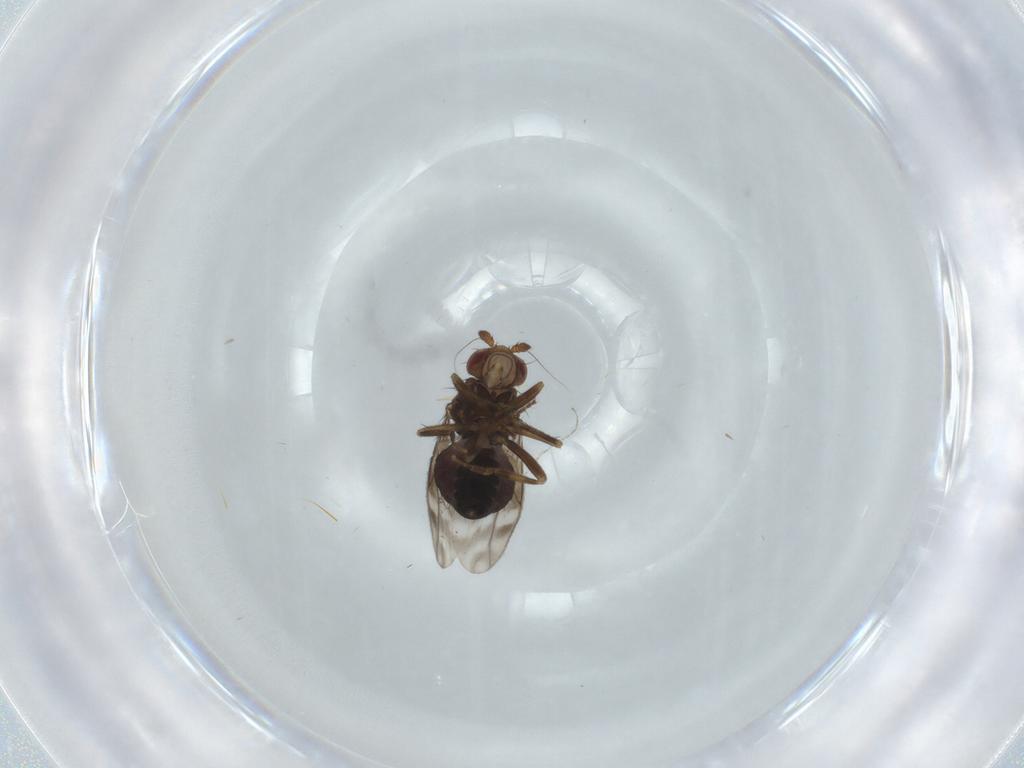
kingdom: Animalia
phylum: Arthropoda
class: Insecta
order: Diptera
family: Sphaeroceridae
